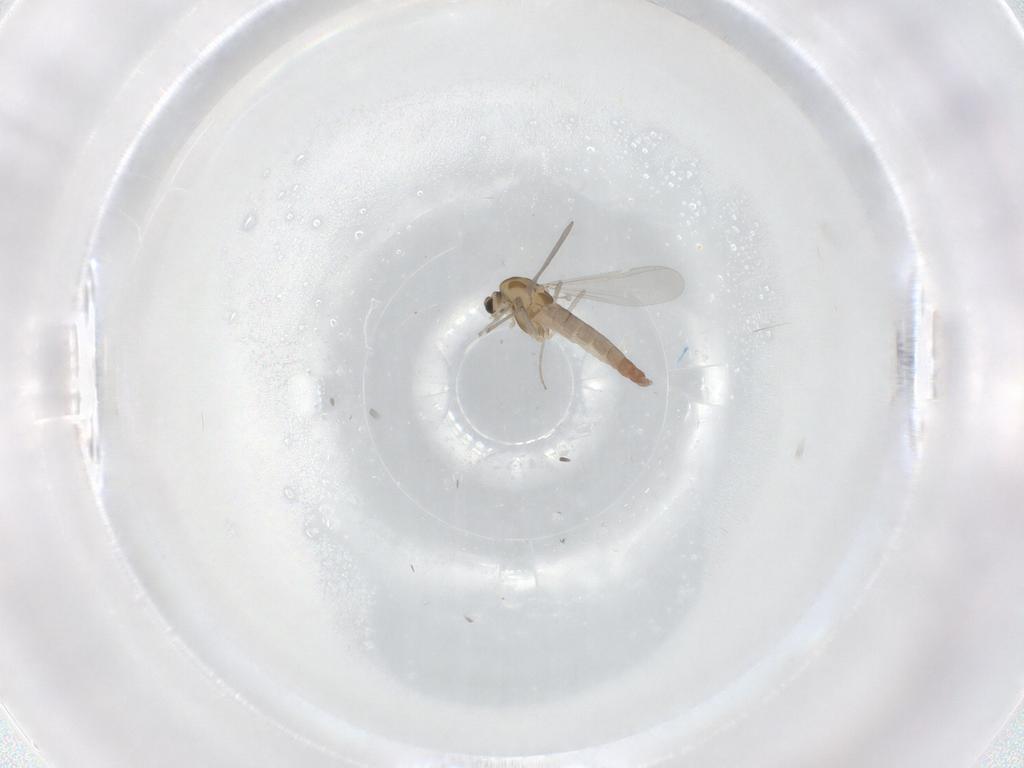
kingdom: Animalia
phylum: Arthropoda
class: Insecta
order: Diptera
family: Chironomidae
